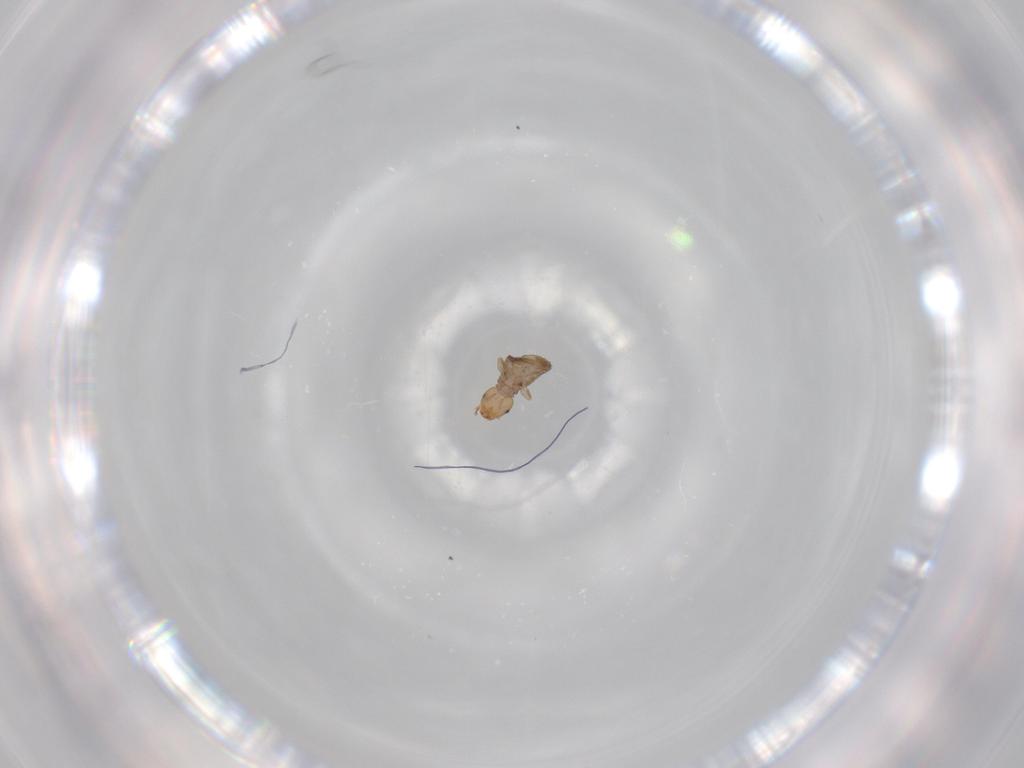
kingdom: Animalia
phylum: Arthropoda
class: Insecta
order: Psocodea
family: Liposcelididae
